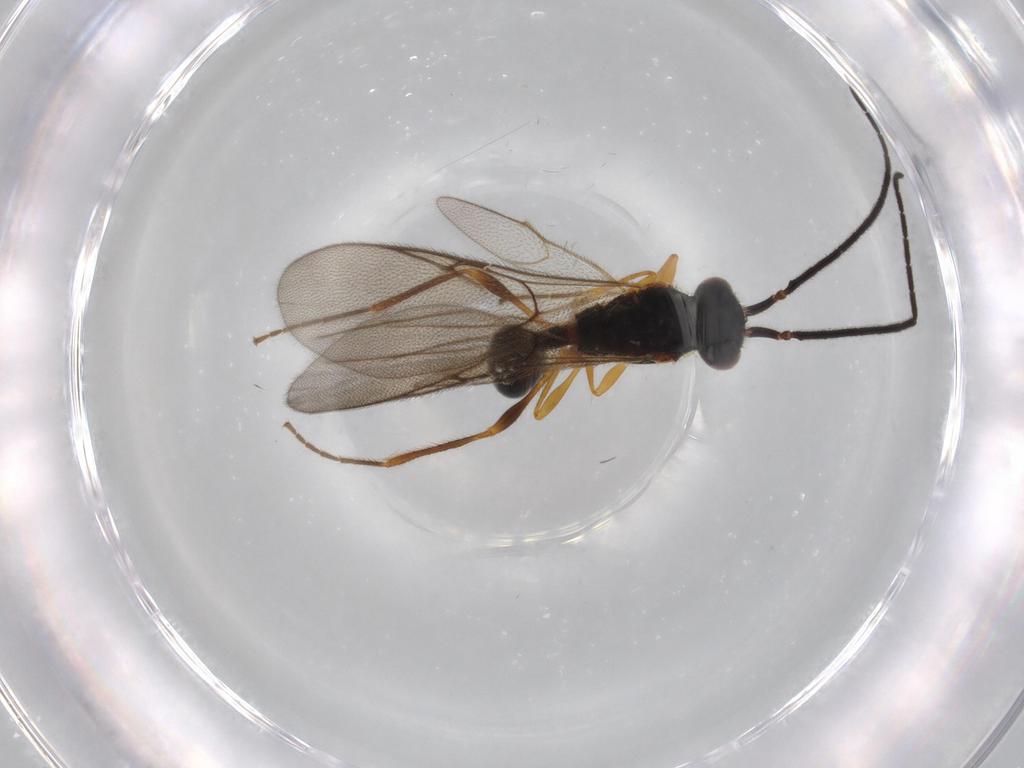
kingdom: Animalia
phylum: Arthropoda
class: Insecta
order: Hymenoptera
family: Diapriidae
